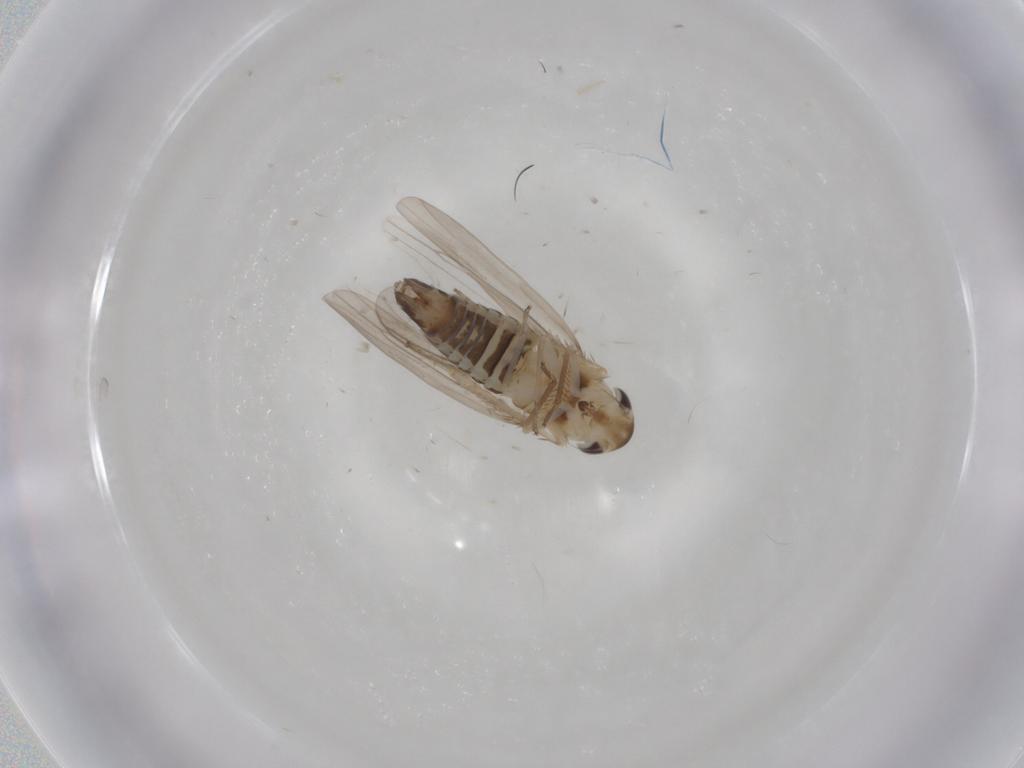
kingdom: Animalia
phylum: Arthropoda
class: Insecta
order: Hemiptera
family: Cicadellidae
